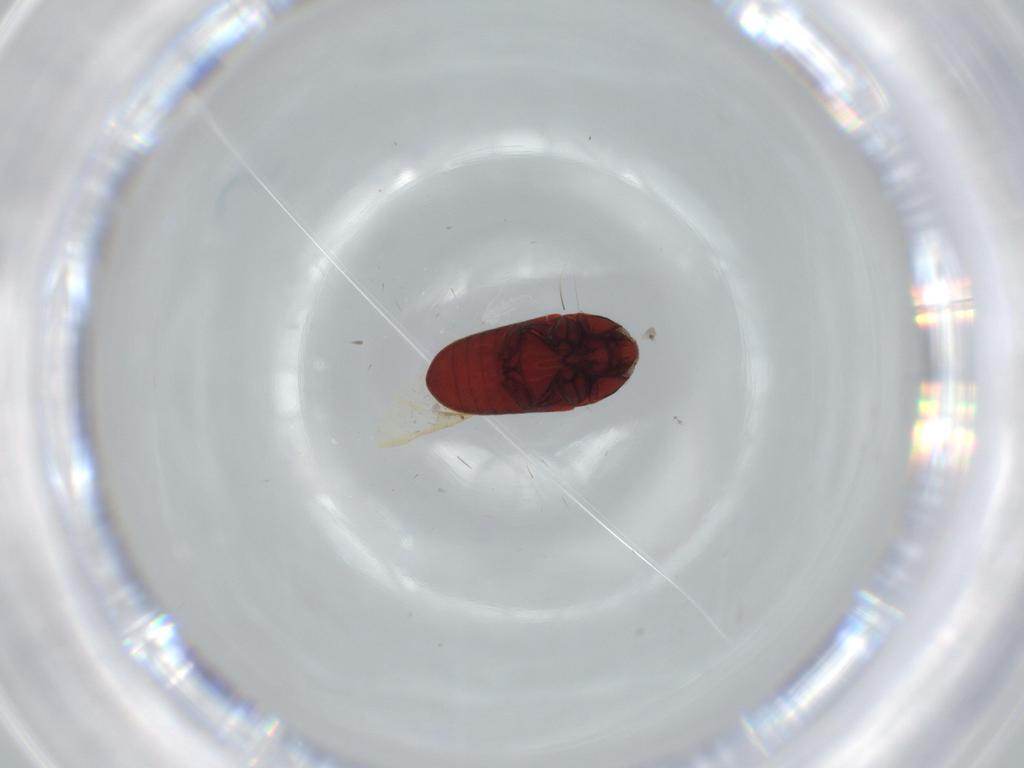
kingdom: Animalia
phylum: Arthropoda
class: Insecta
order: Coleoptera
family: Throscidae
